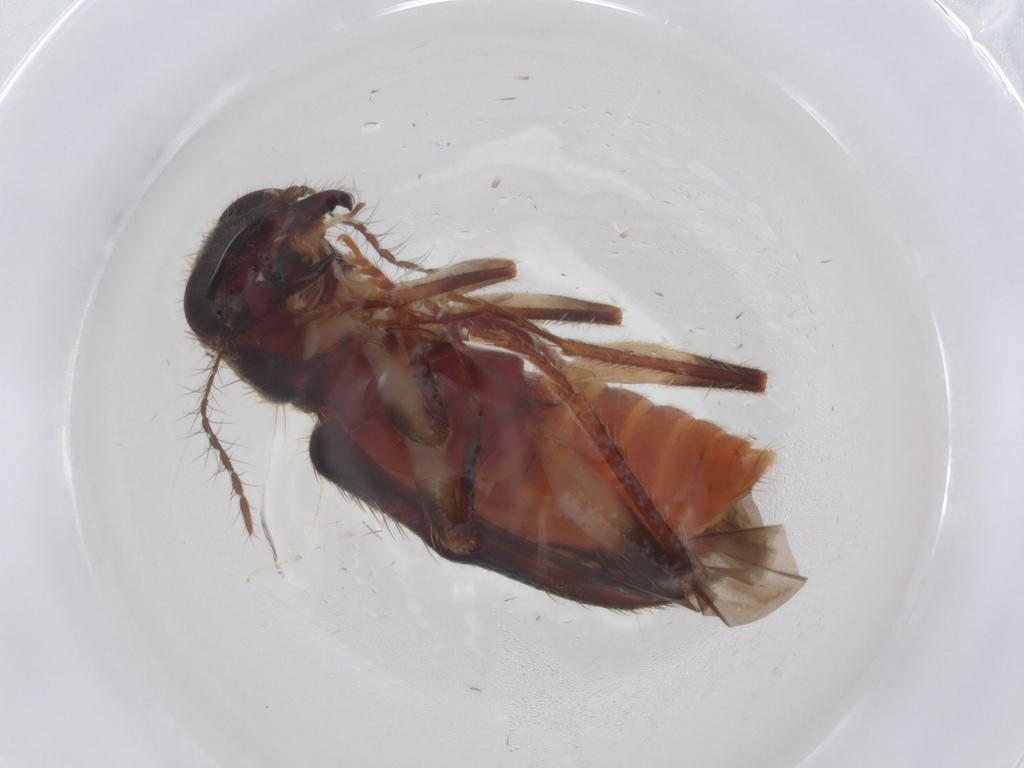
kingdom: Animalia
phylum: Arthropoda
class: Insecta
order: Coleoptera
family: Cleridae
